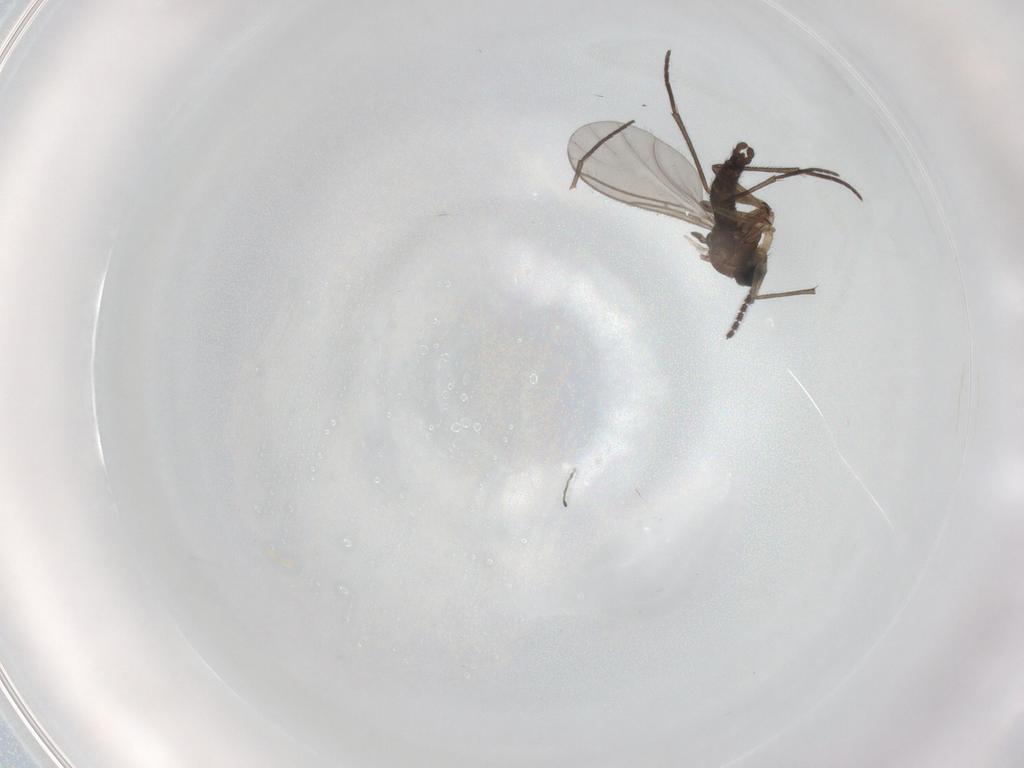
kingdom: Animalia
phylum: Arthropoda
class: Insecta
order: Diptera
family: Sciaridae
